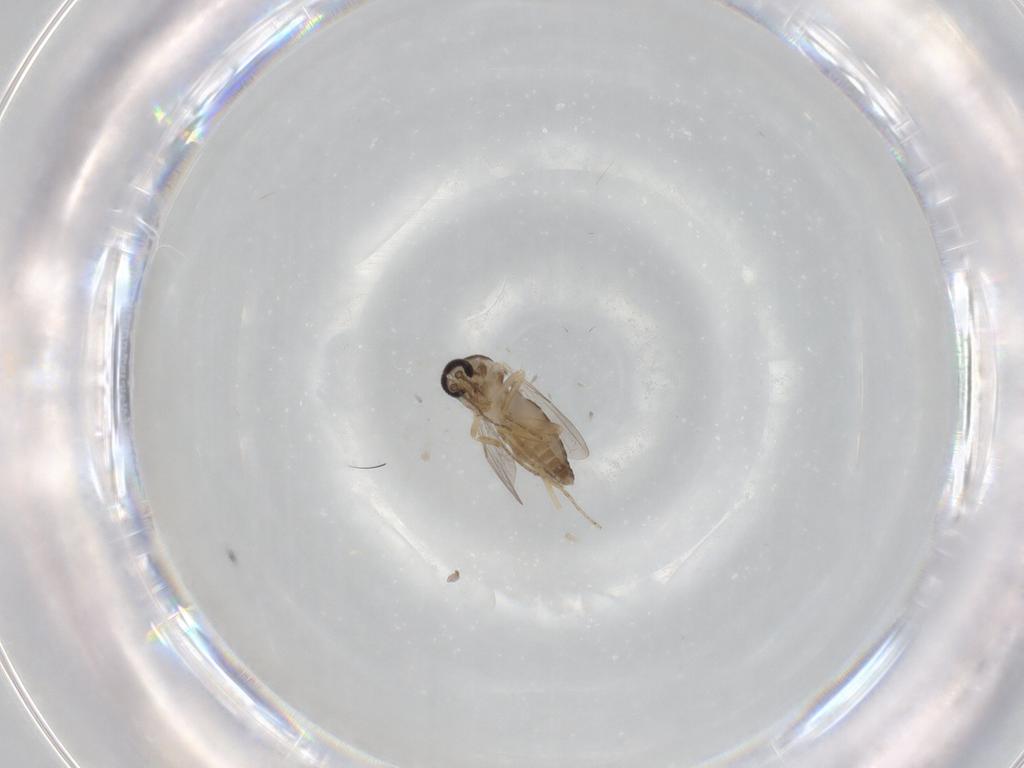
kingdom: Animalia
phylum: Arthropoda
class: Insecta
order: Diptera
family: Ceratopogonidae
